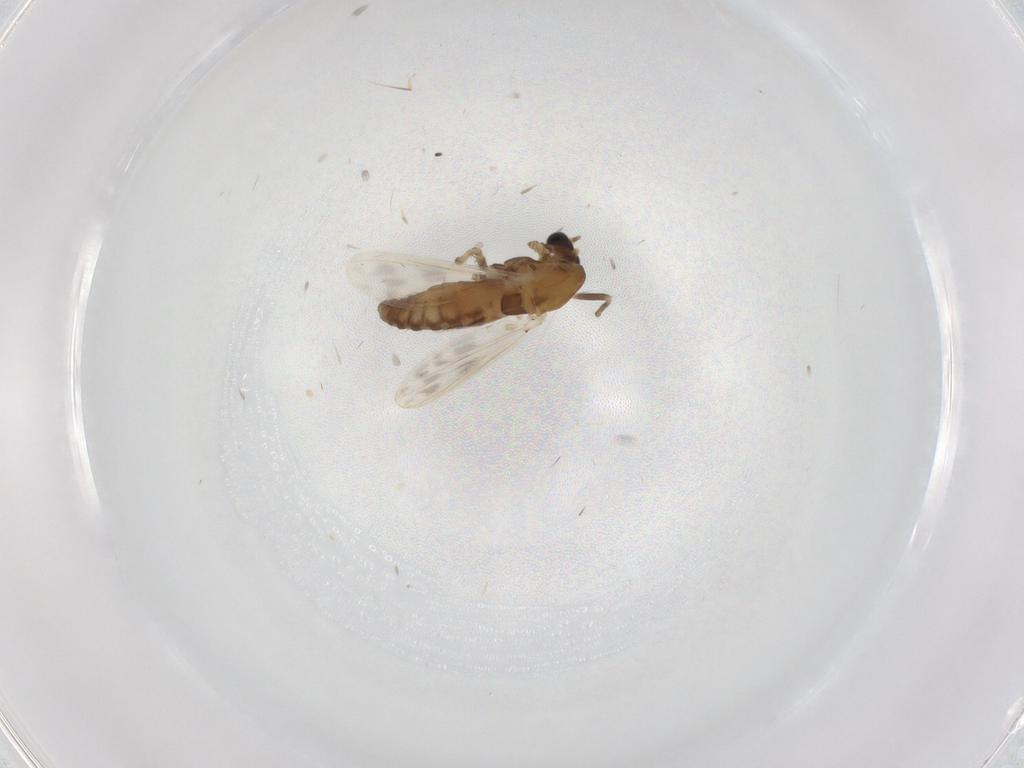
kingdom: Animalia
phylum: Arthropoda
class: Insecta
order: Diptera
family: Chironomidae
